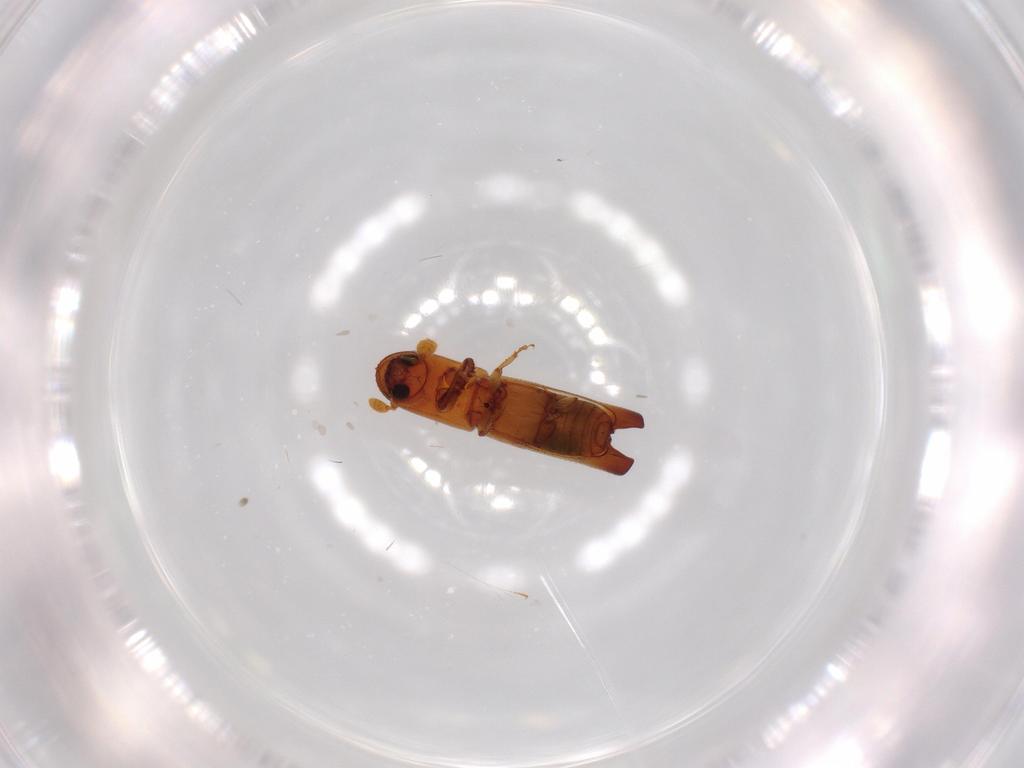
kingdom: Animalia
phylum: Arthropoda
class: Insecta
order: Coleoptera
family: Curculionidae
